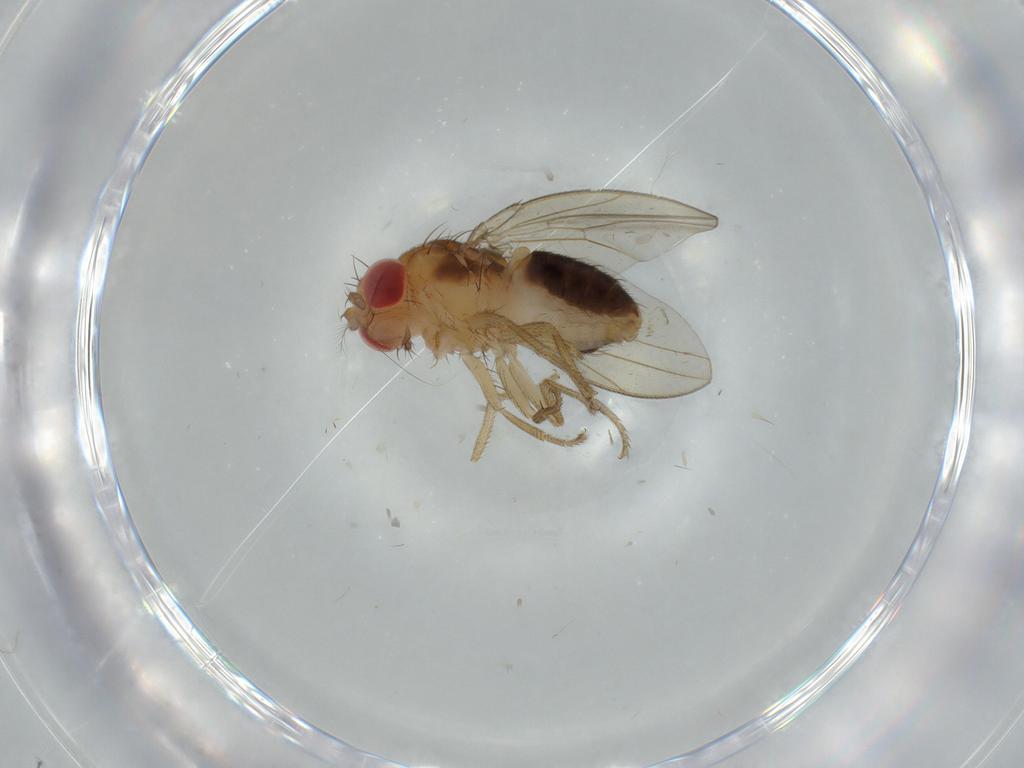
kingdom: Animalia
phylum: Arthropoda
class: Insecta
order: Diptera
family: Drosophilidae
